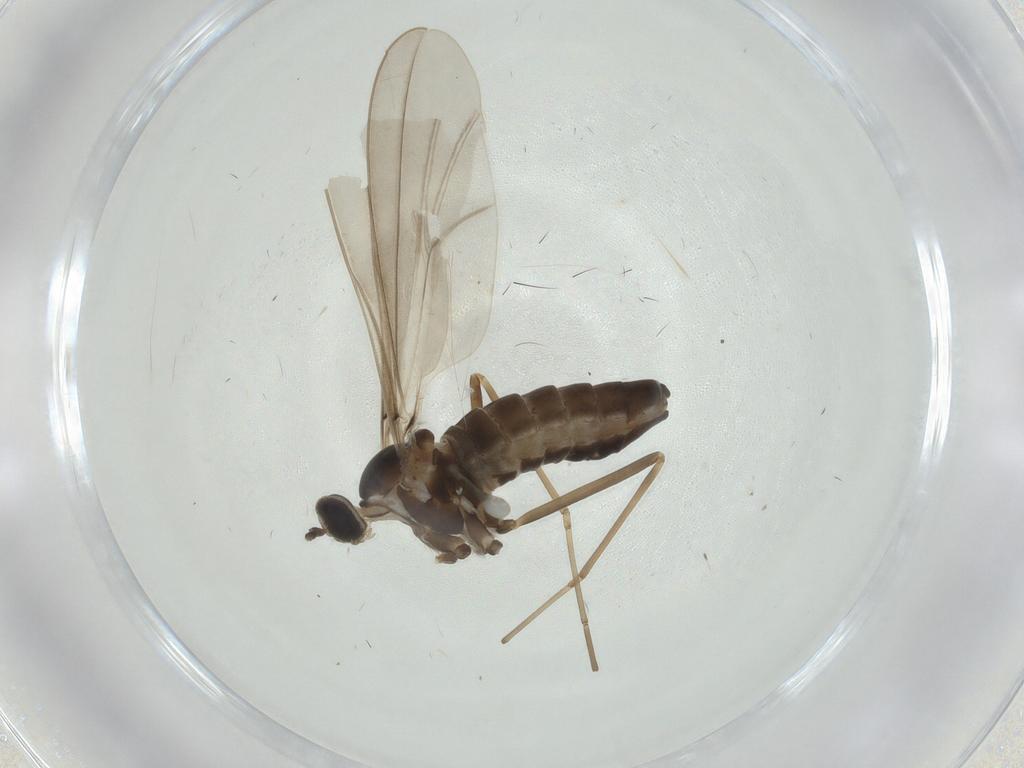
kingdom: Animalia
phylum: Arthropoda
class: Insecta
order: Diptera
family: Cecidomyiidae
